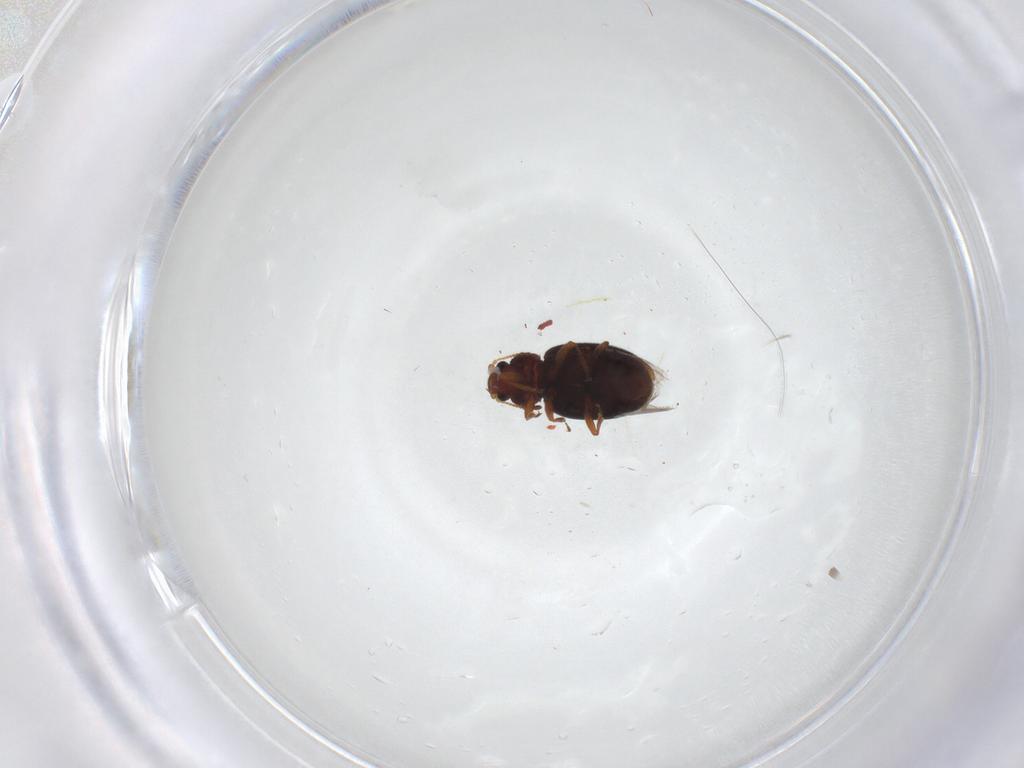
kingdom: Animalia
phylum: Arthropoda
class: Insecta
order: Coleoptera
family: Latridiidae
